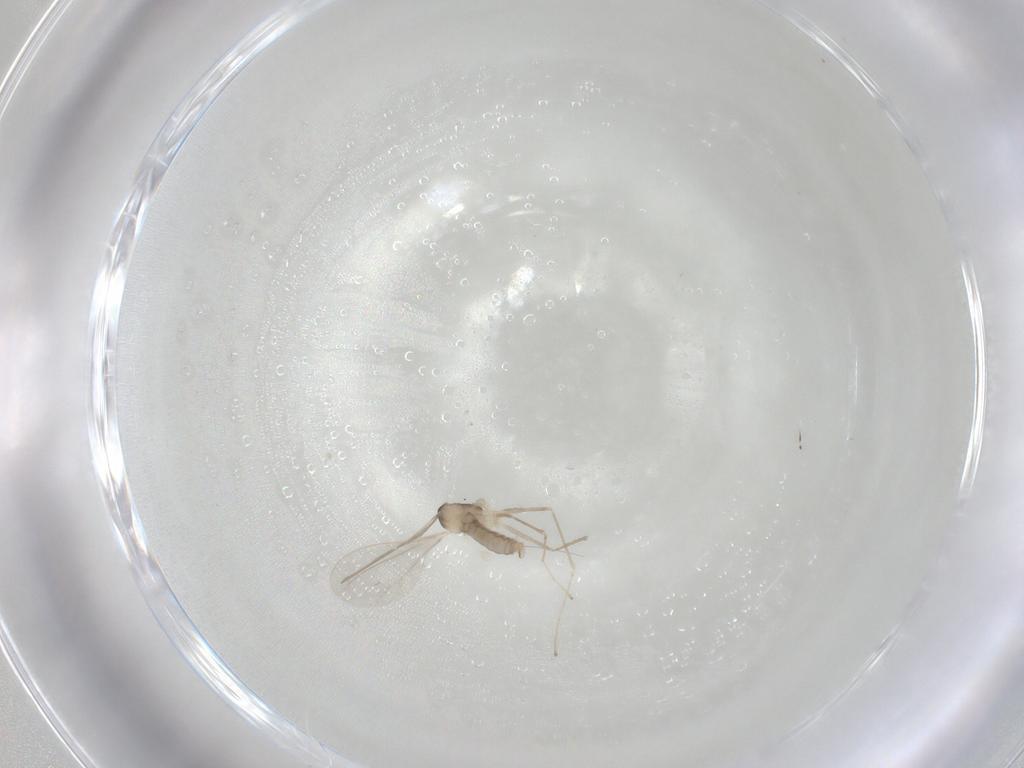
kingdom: Animalia
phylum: Arthropoda
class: Insecta
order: Diptera
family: Cecidomyiidae
